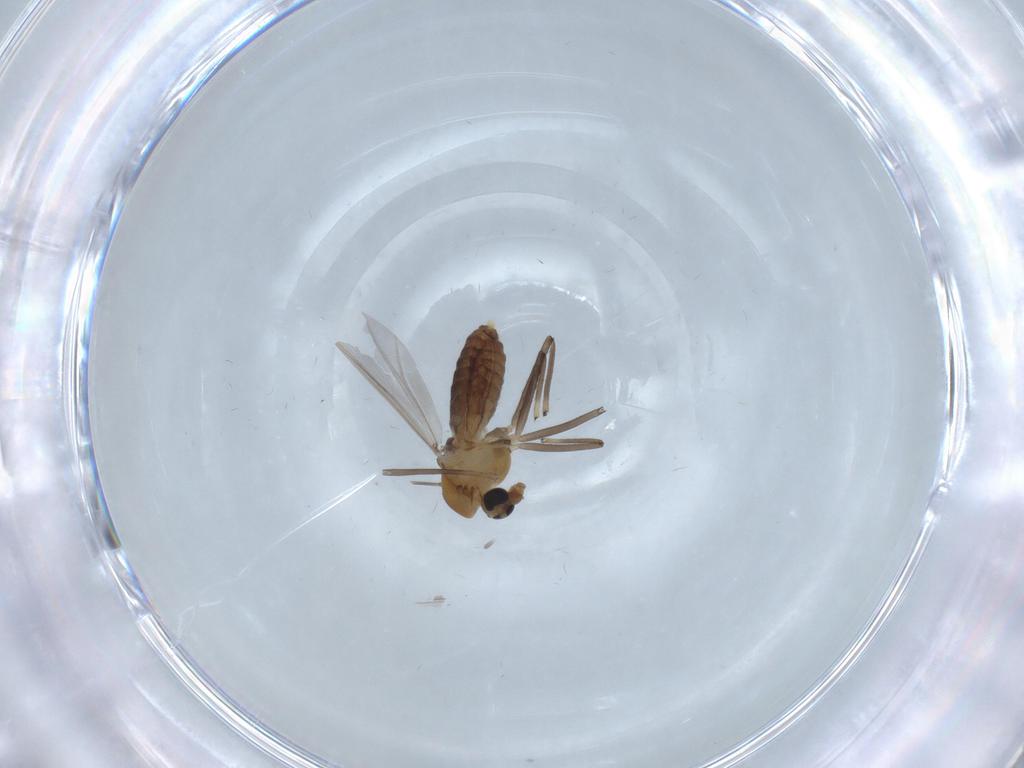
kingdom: Animalia
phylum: Arthropoda
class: Insecta
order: Diptera
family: Chironomidae
